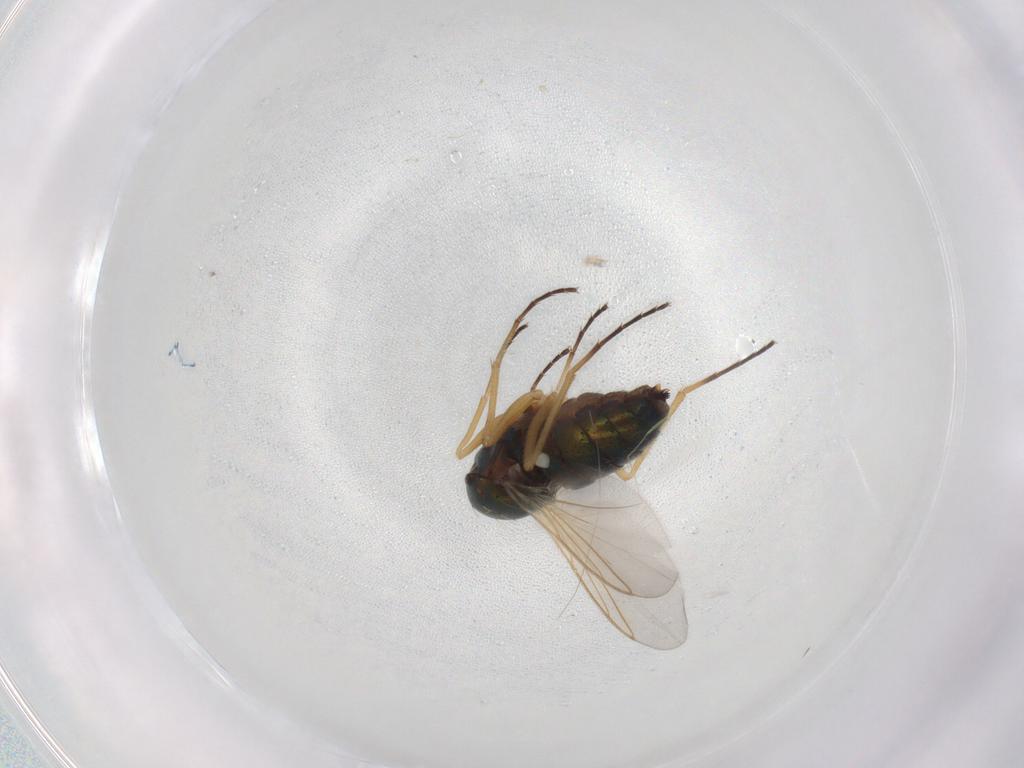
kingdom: Animalia
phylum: Arthropoda
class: Insecta
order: Diptera
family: Dolichopodidae
